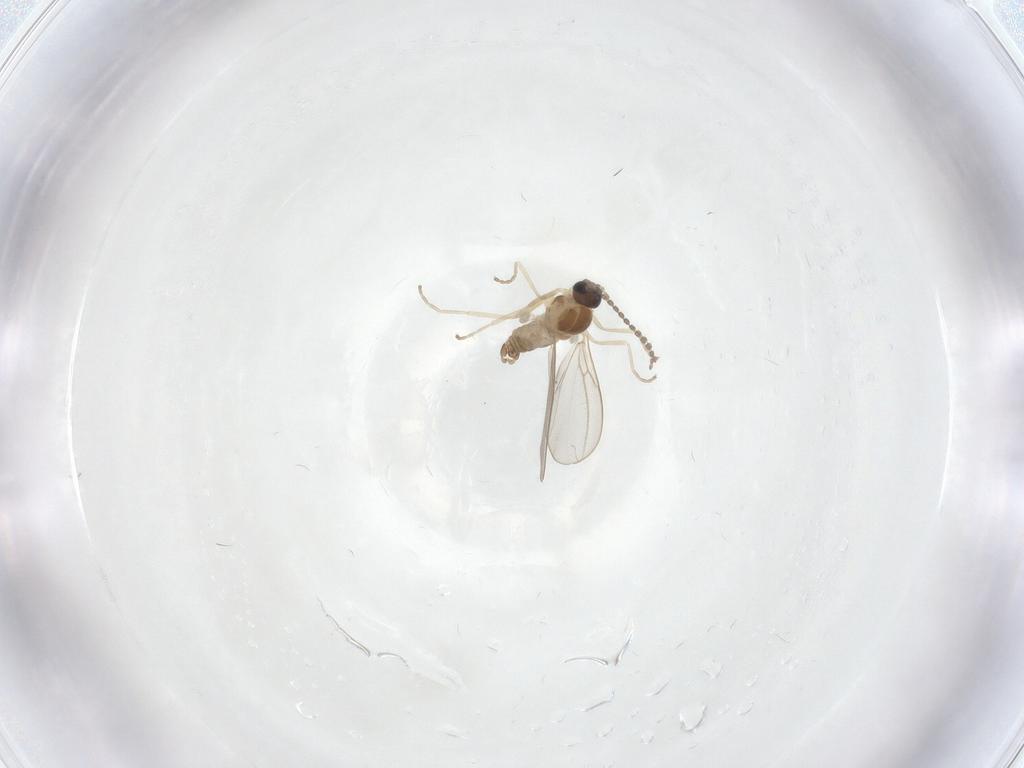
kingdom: Animalia
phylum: Arthropoda
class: Insecta
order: Diptera
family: Cecidomyiidae
